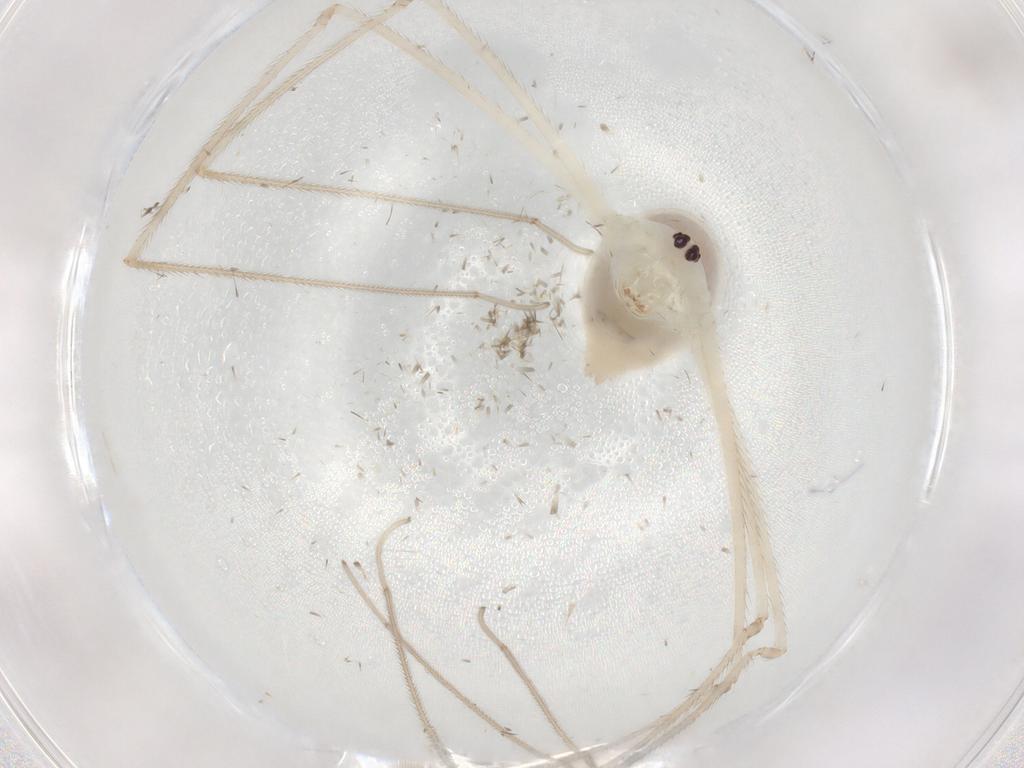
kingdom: Animalia
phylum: Arthropoda
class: Arachnida
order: Araneae
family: Pholcidae
